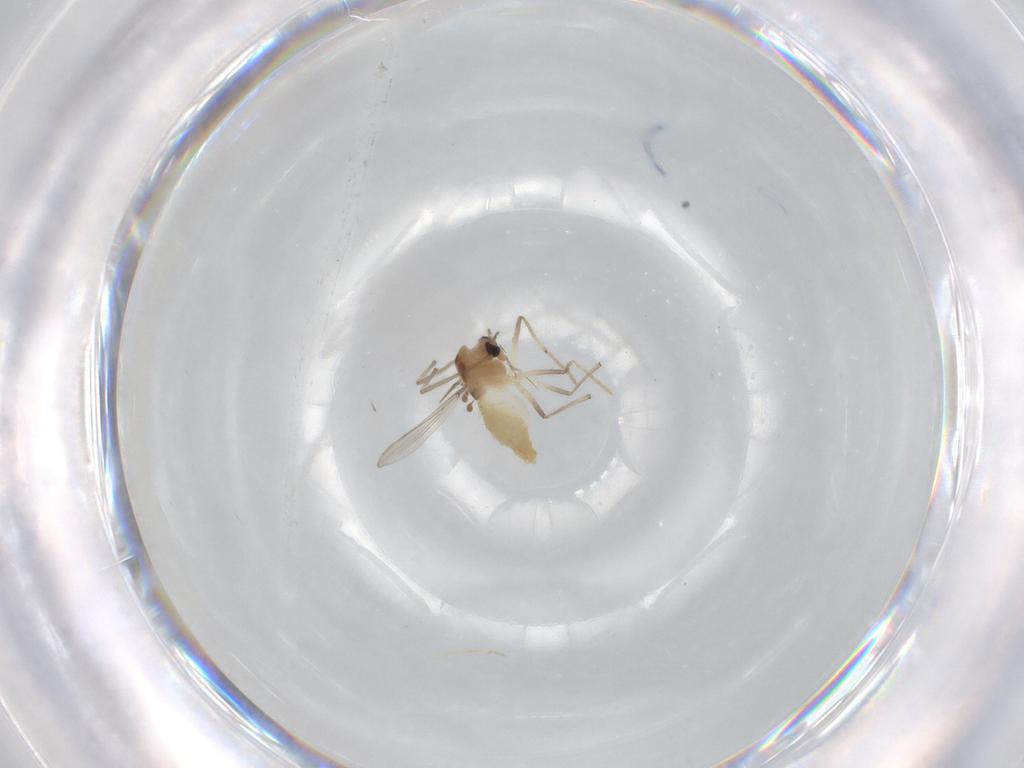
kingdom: Animalia
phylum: Arthropoda
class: Insecta
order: Diptera
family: Chironomidae
